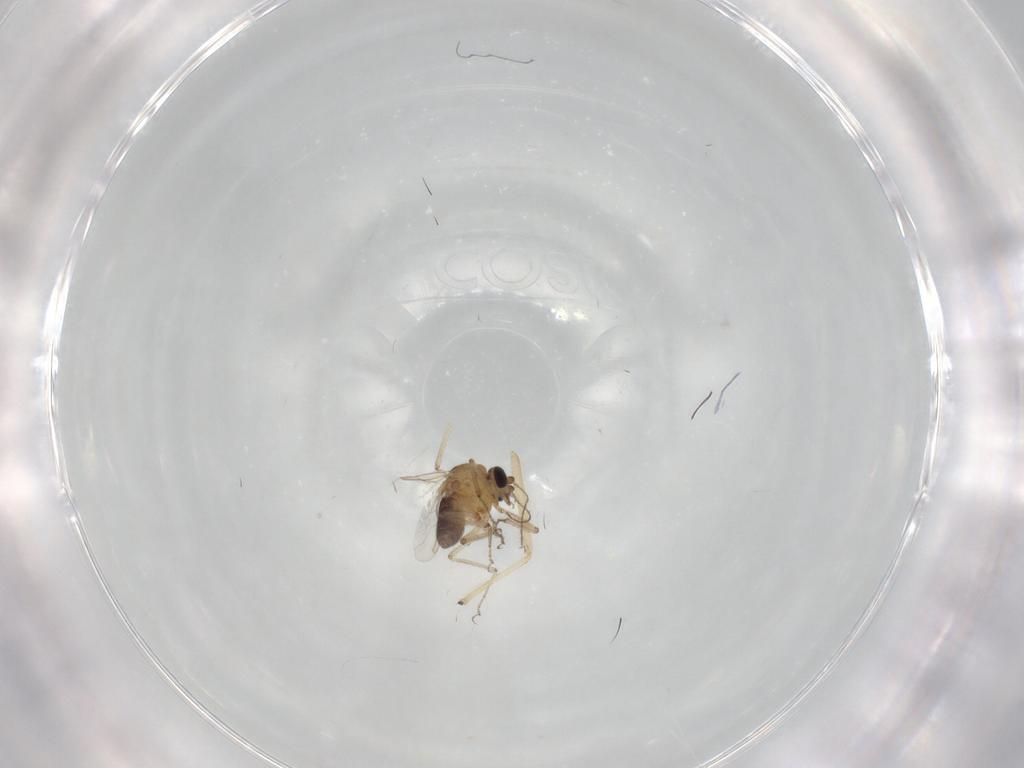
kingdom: Animalia
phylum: Arthropoda
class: Insecta
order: Diptera
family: Ceratopogonidae
